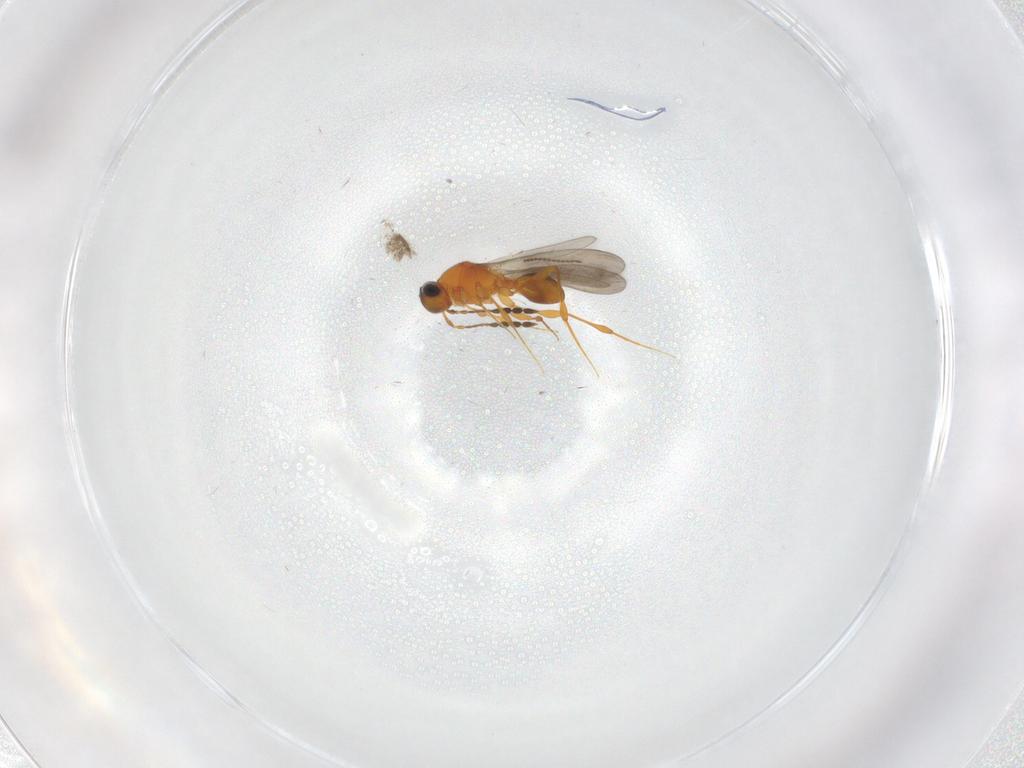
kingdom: Animalia
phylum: Arthropoda
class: Insecta
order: Hymenoptera
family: Platygastridae
